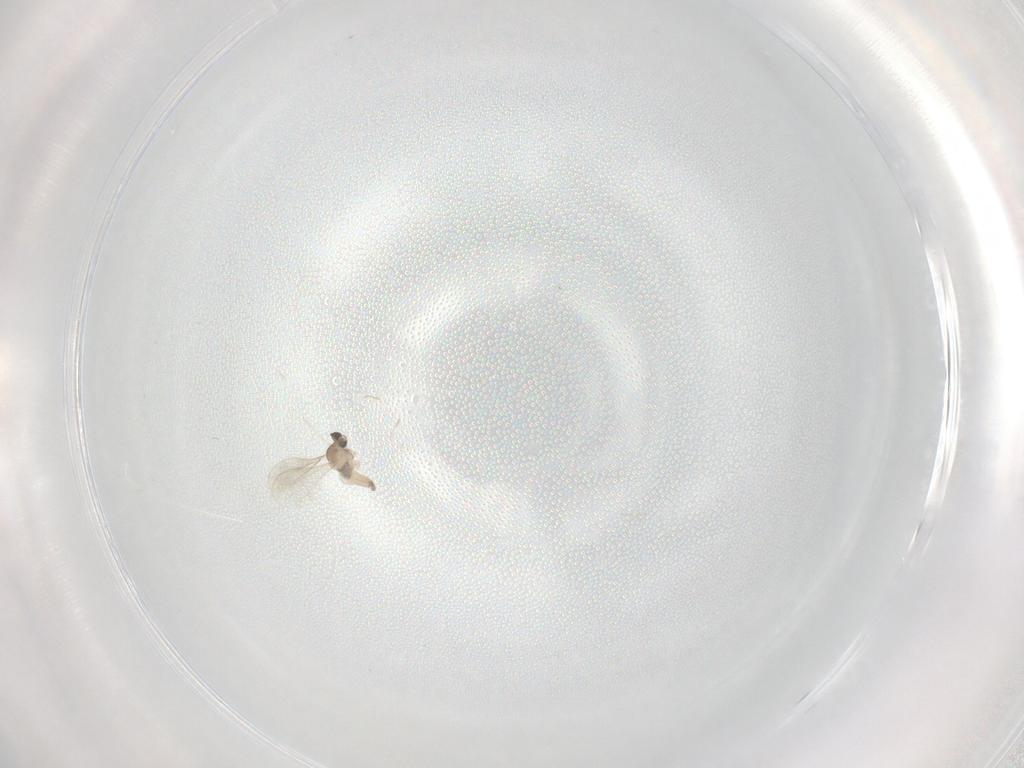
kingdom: Animalia
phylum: Arthropoda
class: Insecta
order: Diptera
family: Cecidomyiidae
